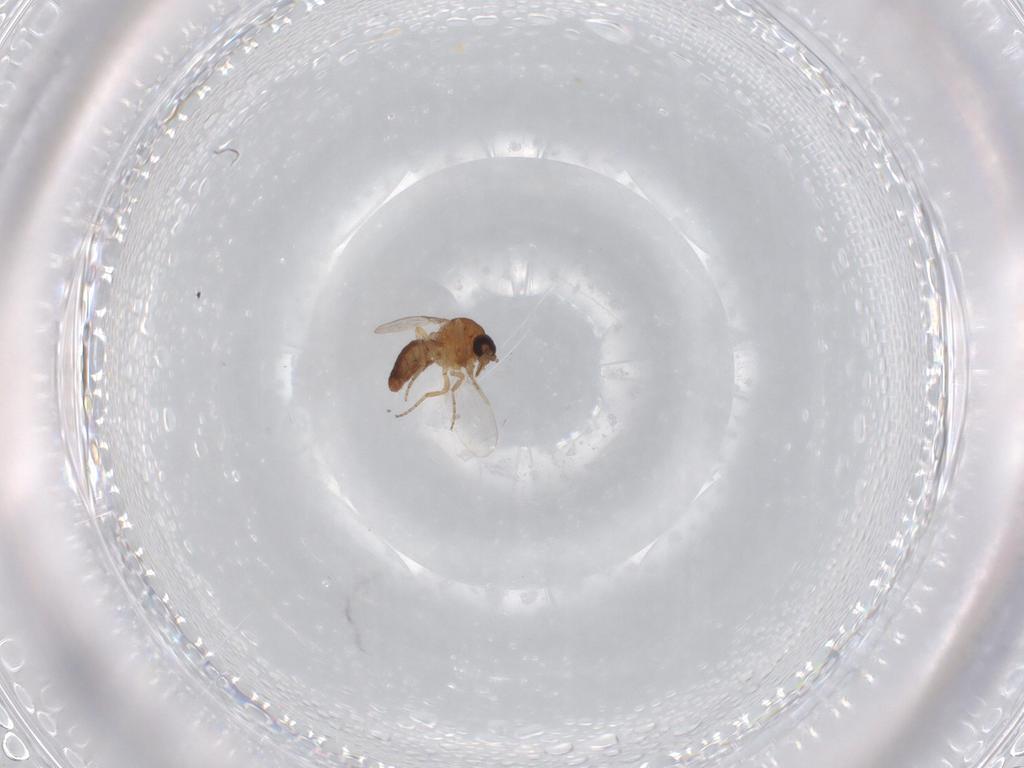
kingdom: Animalia
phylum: Arthropoda
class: Insecta
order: Diptera
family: Ceratopogonidae
